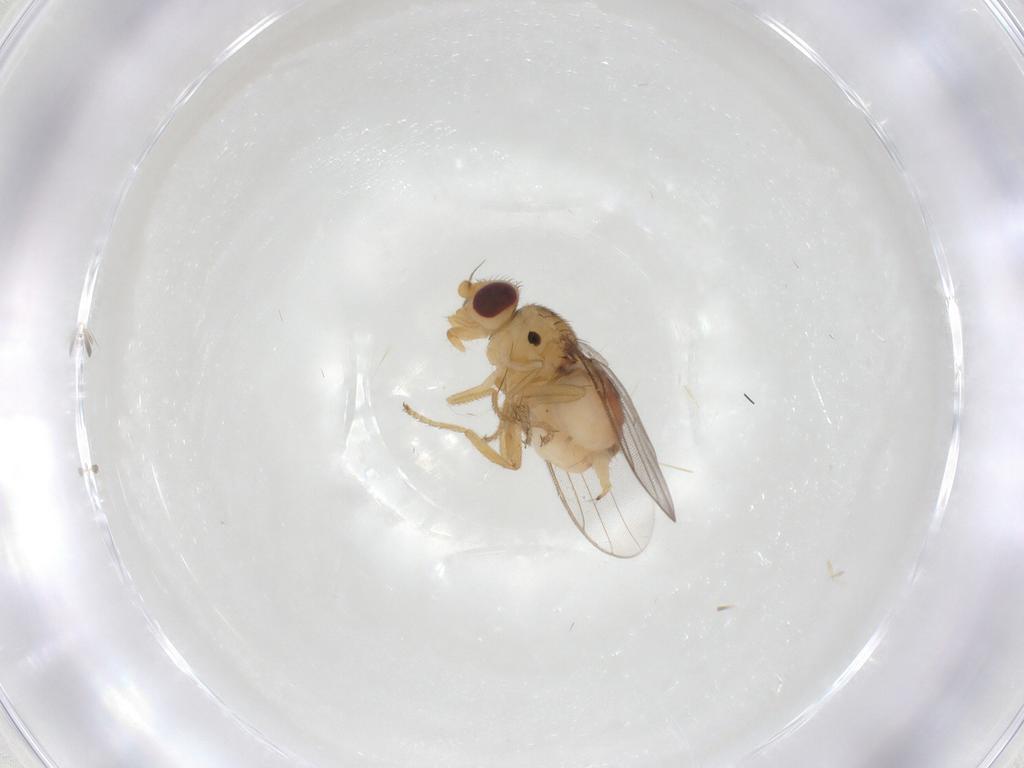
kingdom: Animalia
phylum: Arthropoda
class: Insecta
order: Diptera
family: Chloropidae
